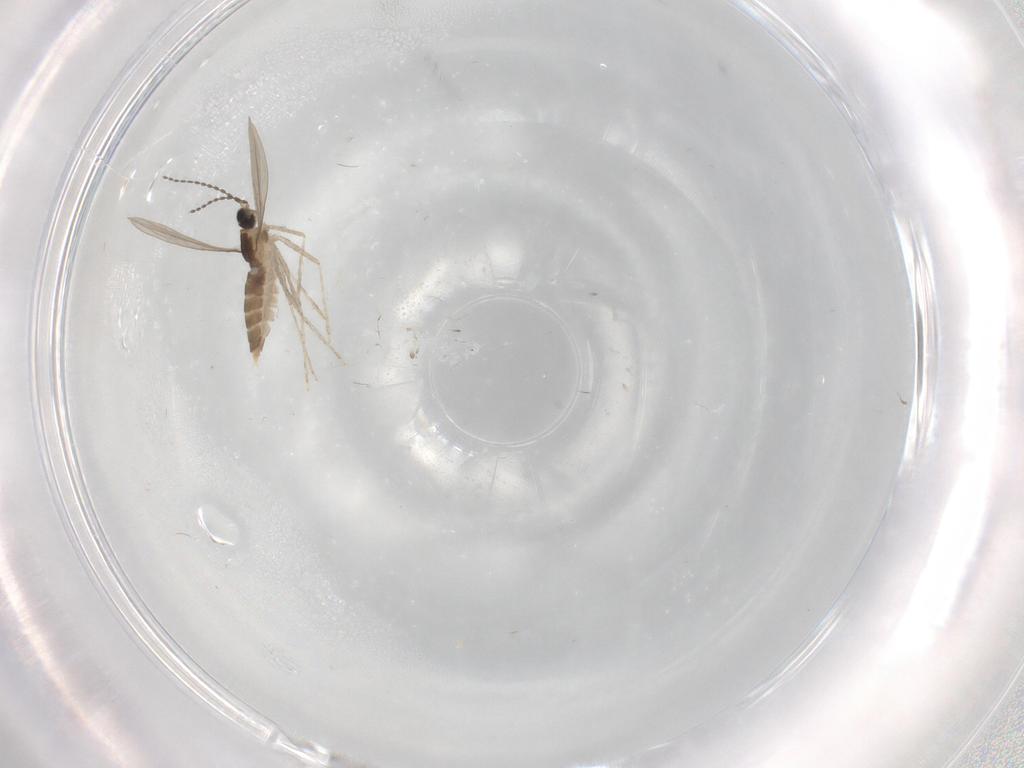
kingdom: Animalia
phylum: Arthropoda
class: Insecta
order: Diptera
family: Cecidomyiidae
